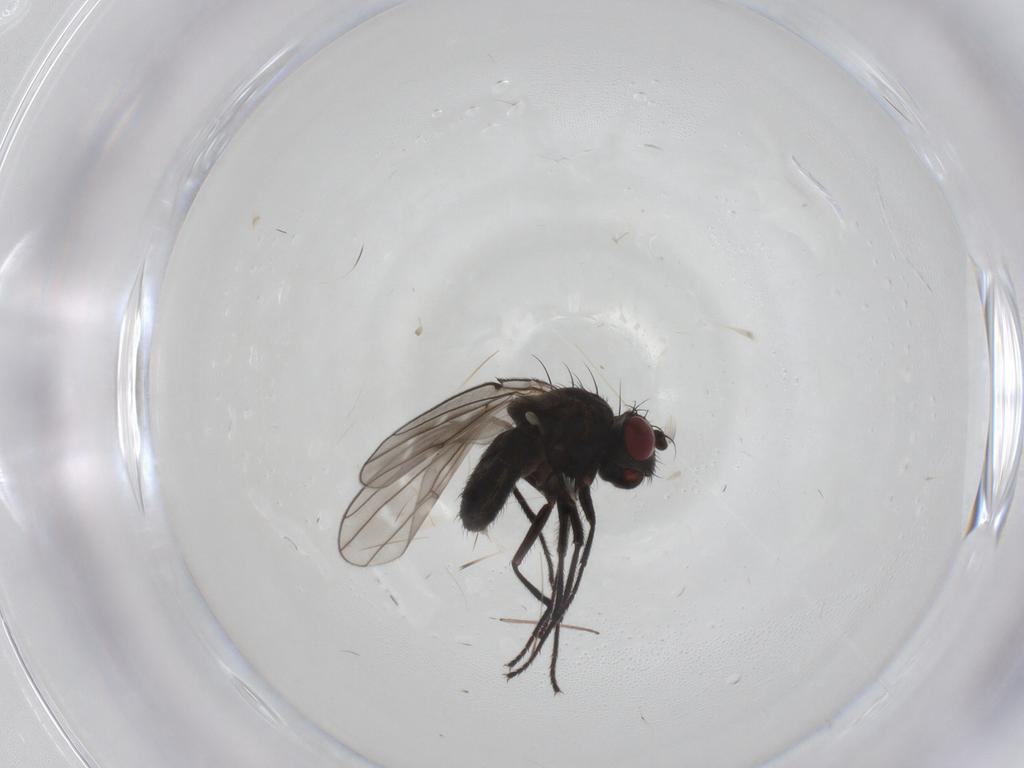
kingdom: Animalia
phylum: Arthropoda
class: Insecta
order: Diptera
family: Ephydridae
